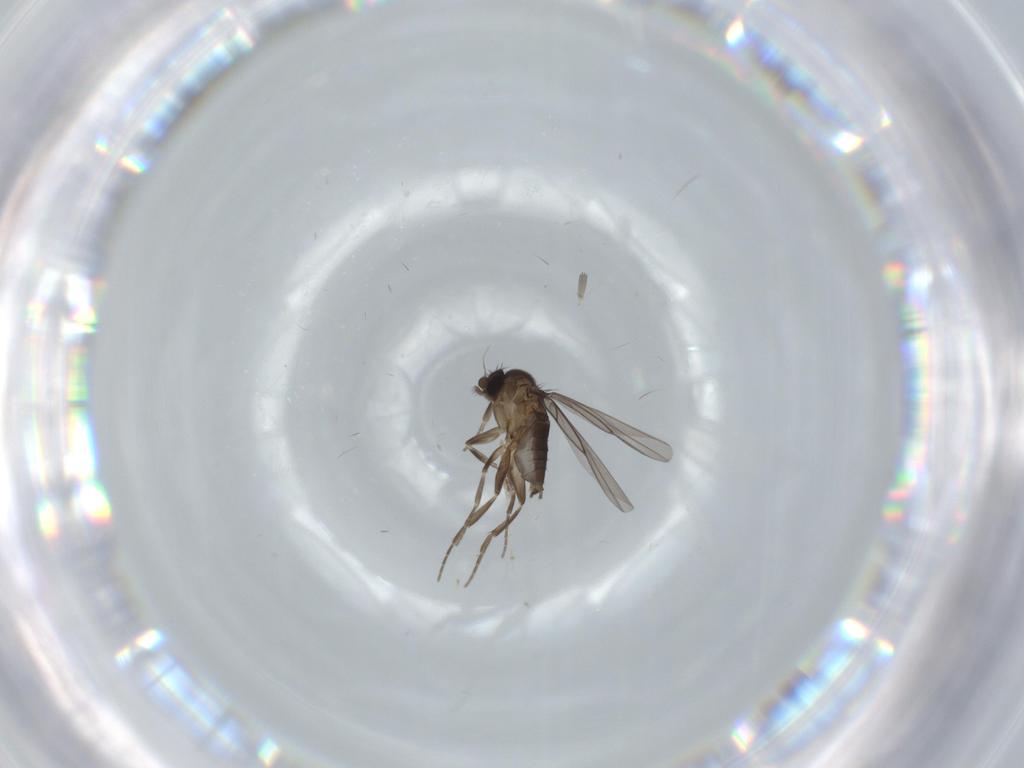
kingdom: Animalia
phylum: Arthropoda
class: Insecta
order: Diptera
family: Phoridae
